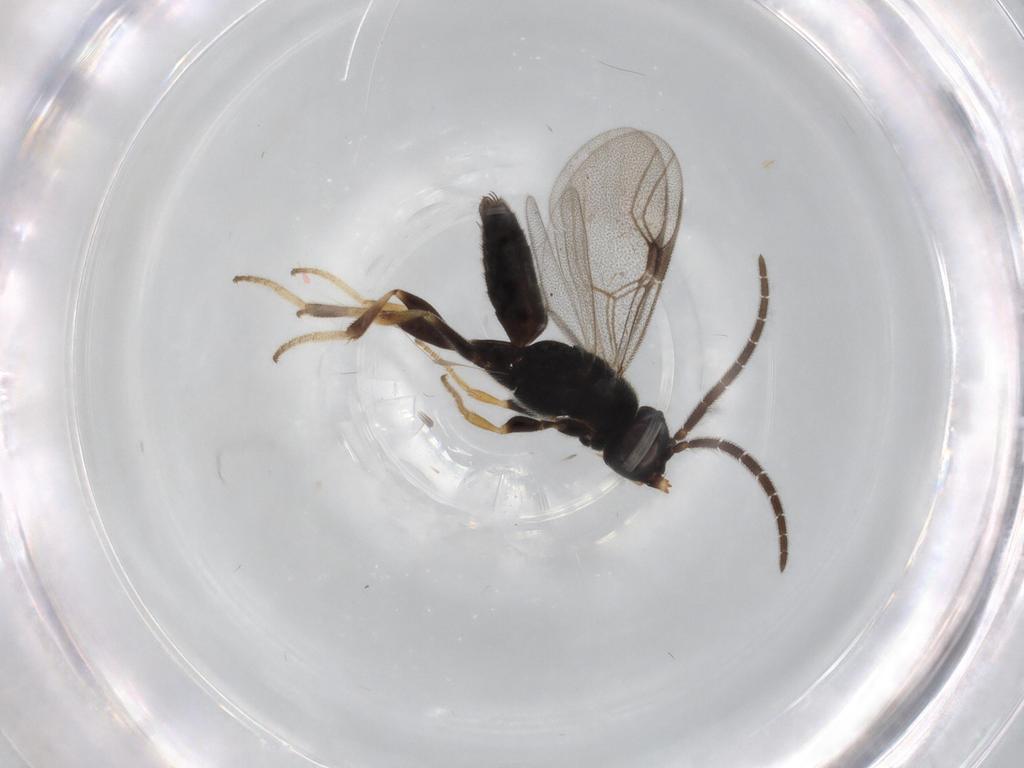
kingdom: Animalia
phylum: Arthropoda
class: Insecta
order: Hymenoptera
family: Dryinidae
